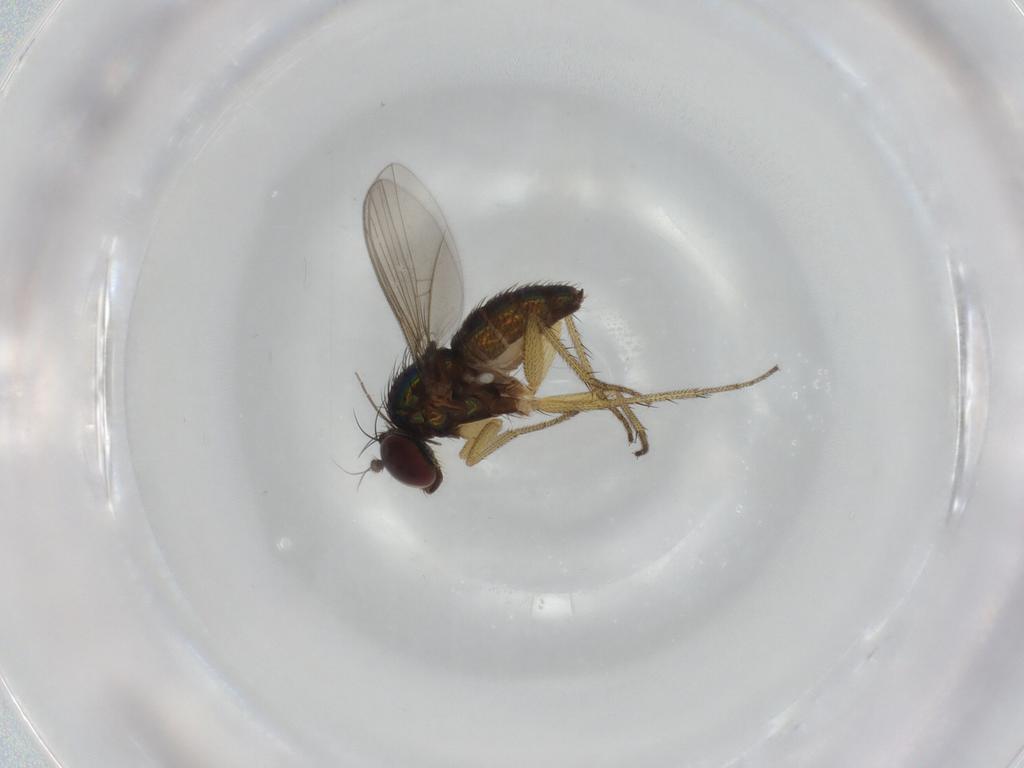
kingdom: Animalia
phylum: Arthropoda
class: Insecta
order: Diptera
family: Dolichopodidae
